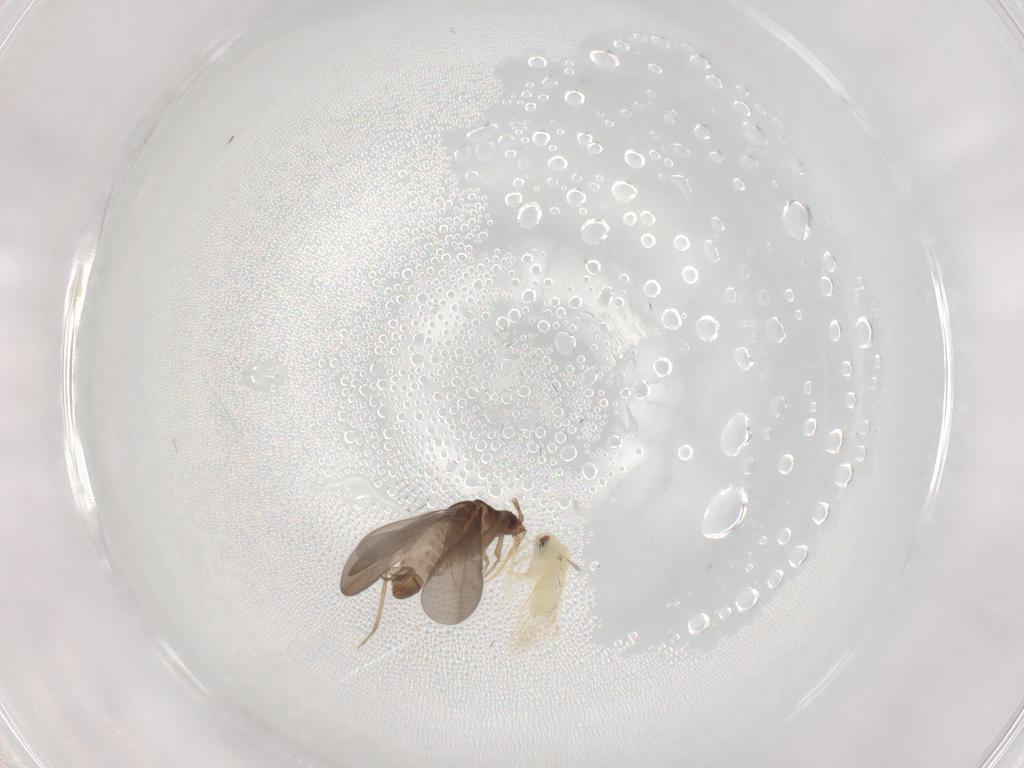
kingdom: Animalia
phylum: Arthropoda
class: Insecta
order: Hemiptera
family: Aleyrodidae
